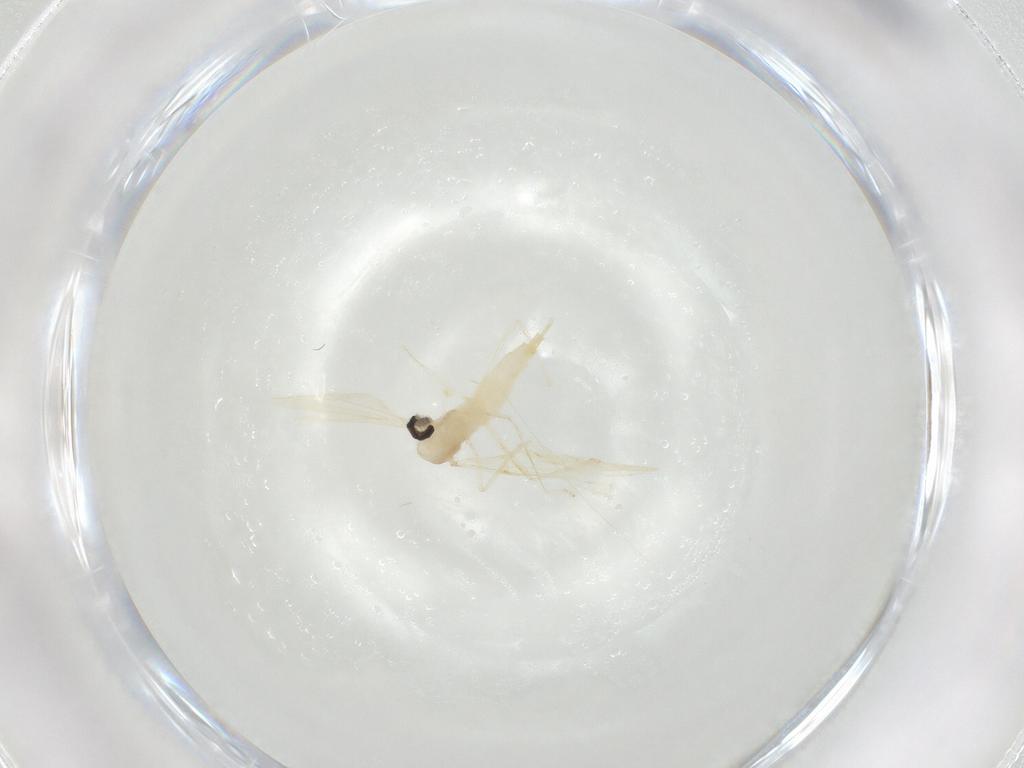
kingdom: Animalia
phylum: Arthropoda
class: Insecta
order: Diptera
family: Cecidomyiidae
